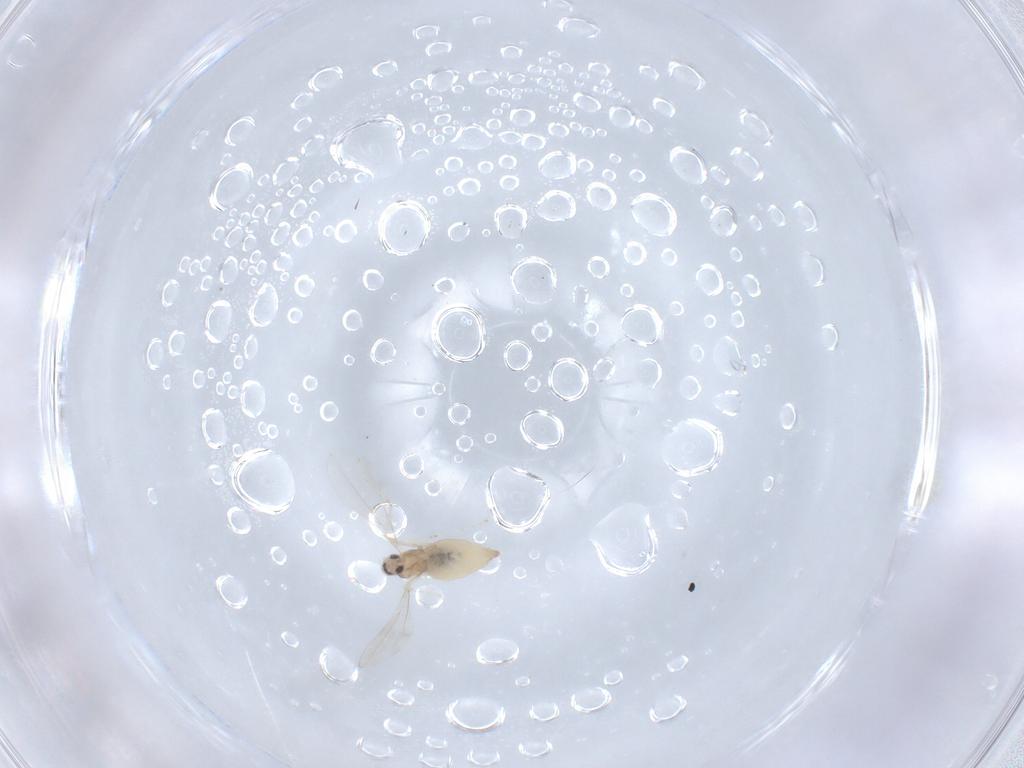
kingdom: Animalia
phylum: Arthropoda
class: Insecta
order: Diptera
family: Cecidomyiidae
